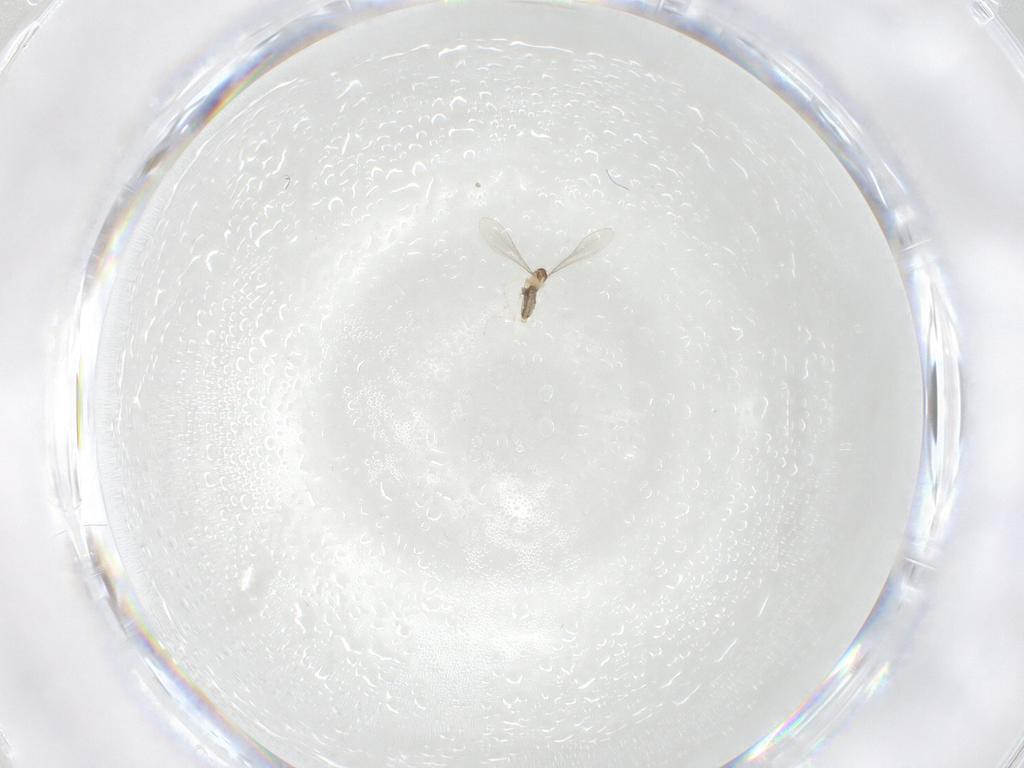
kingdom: Animalia
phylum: Arthropoda
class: Insecta
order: Diptera
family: Cecidomyiidae
